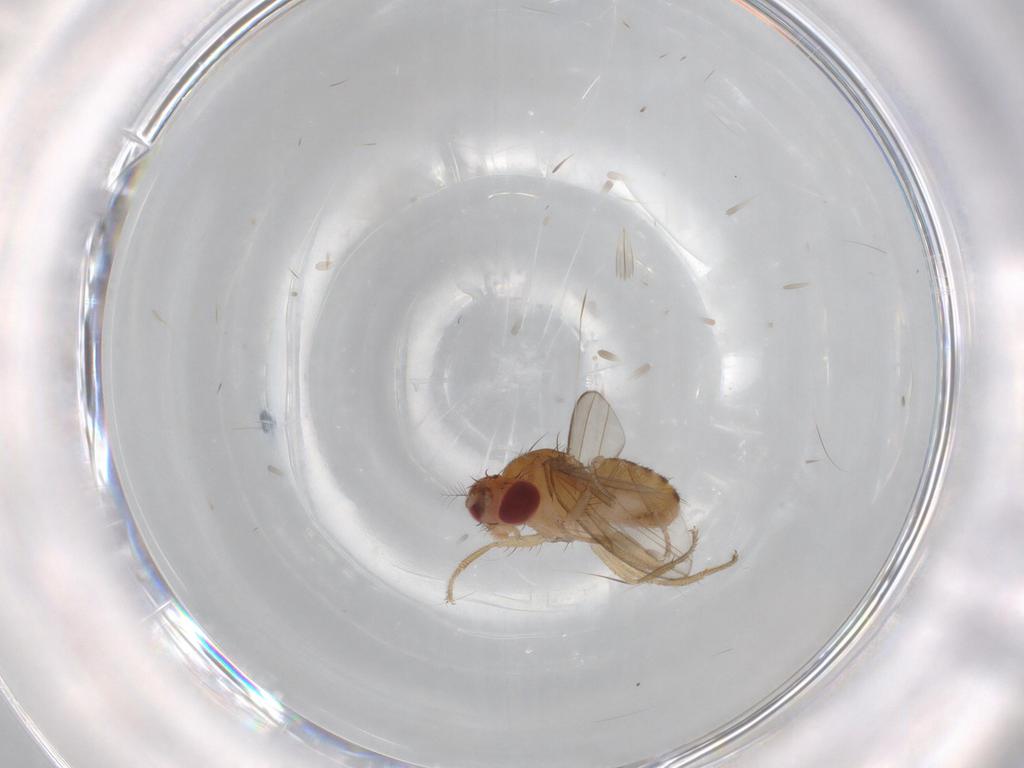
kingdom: Animalia
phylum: Arthropoda
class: Insecta
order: Diptera
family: Drosophilidae
